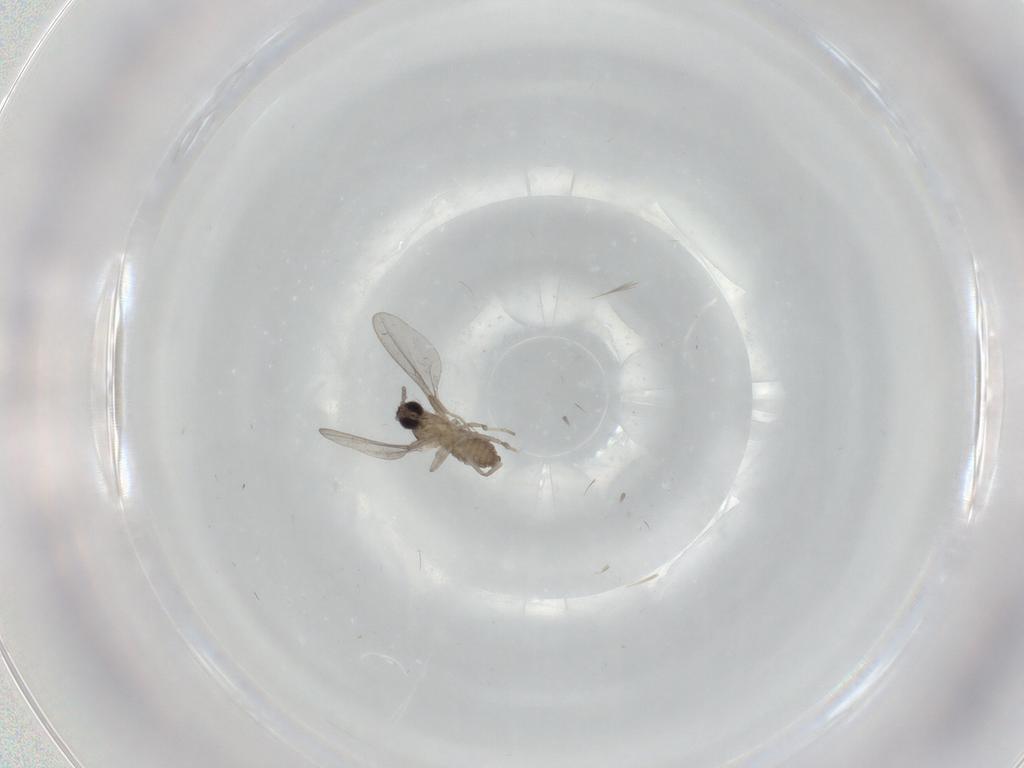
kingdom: Animalia
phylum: Arthropoda
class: Insecta
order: Diptera
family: Cecidomyiidae
